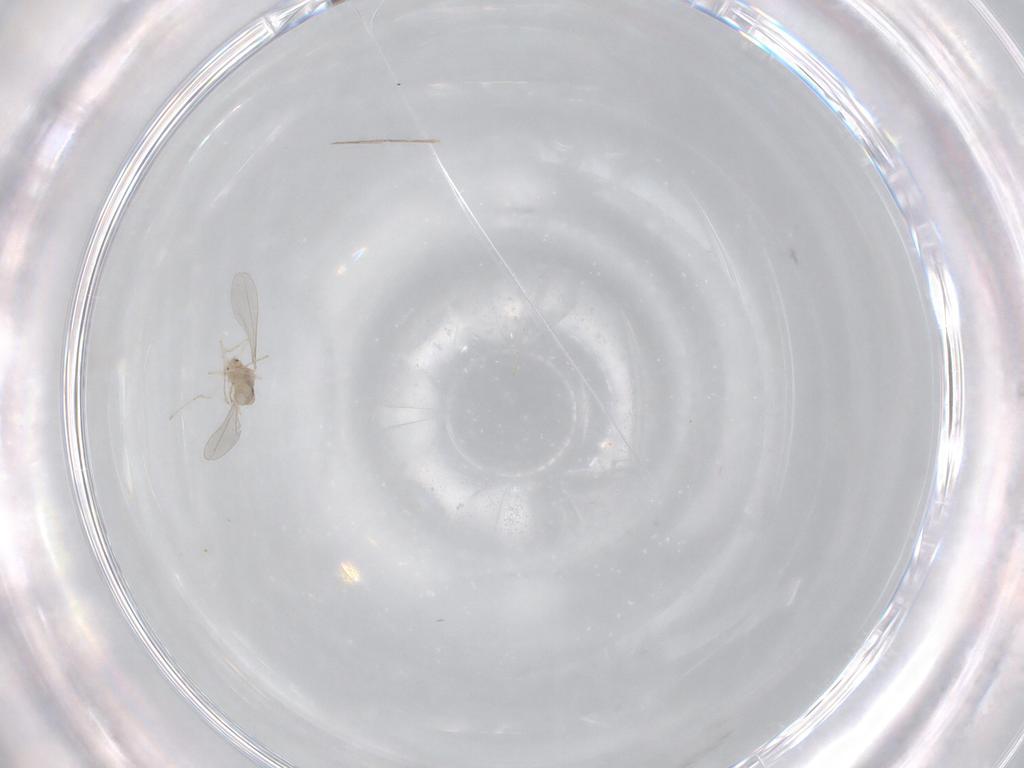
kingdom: Animalia
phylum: Arthropoda
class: Insecta
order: Diptera
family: Cecidomyiidae
